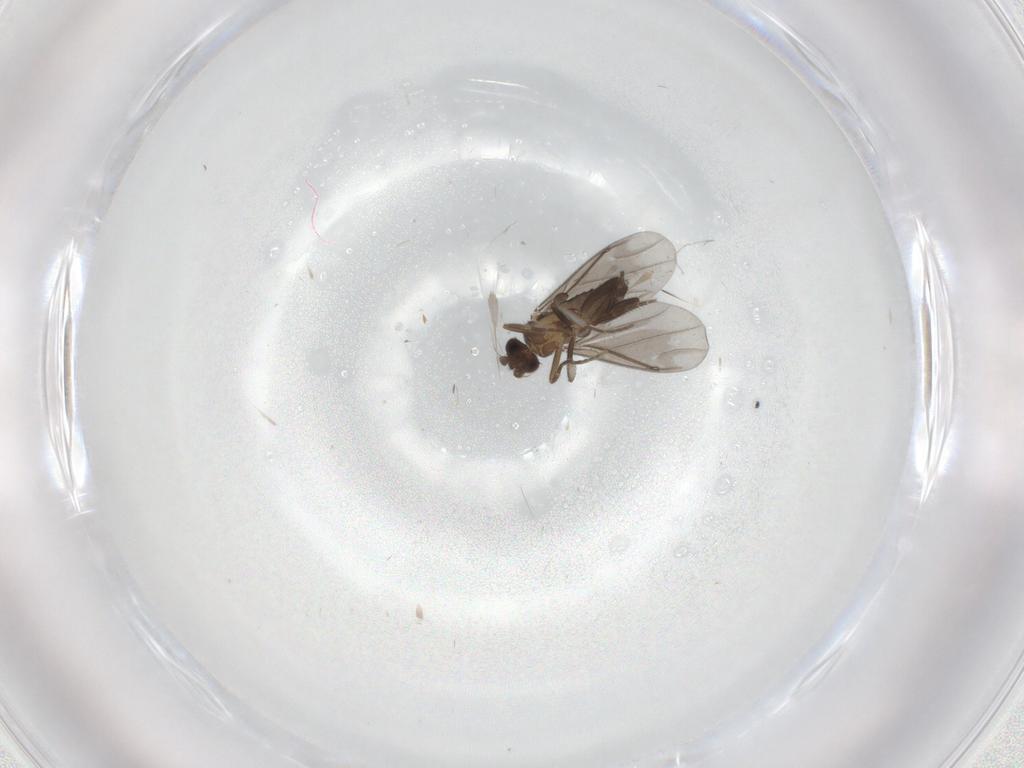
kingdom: Animalia
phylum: Arthropoda
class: Insecta
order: Diptera
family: Phoridae
